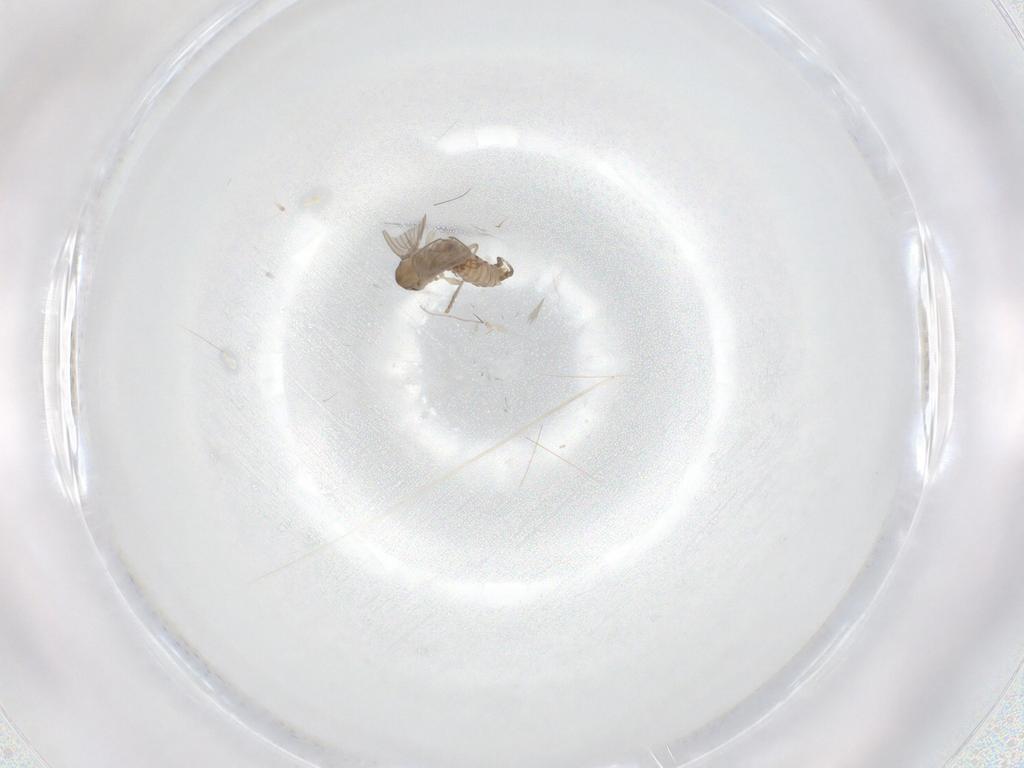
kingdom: Animalia
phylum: Arthropoda
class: Insecta
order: Diptera
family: Psychodidae
